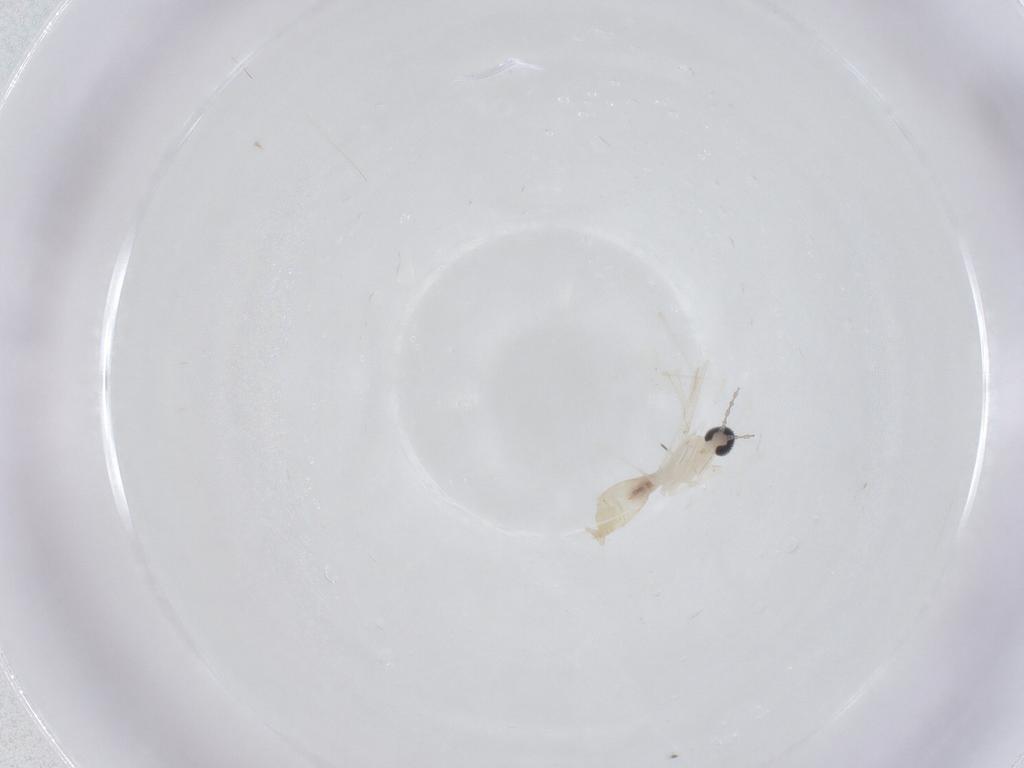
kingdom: Animalia
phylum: Arthropoda
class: Insecta
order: Diptera
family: Cecidomyiidae
